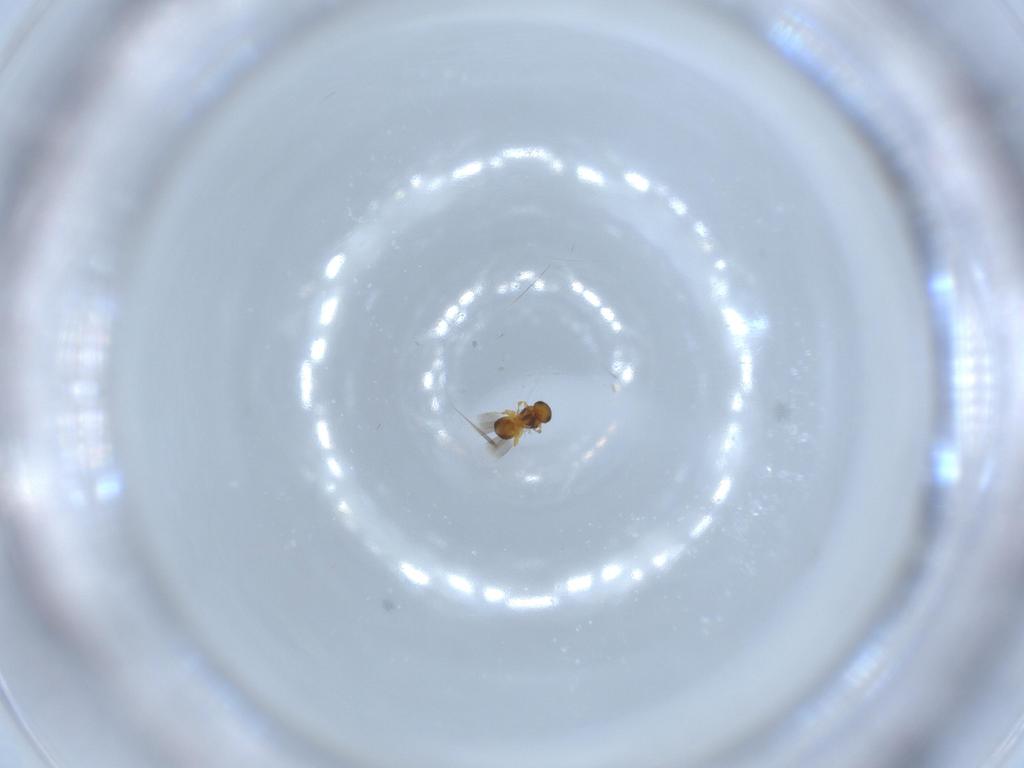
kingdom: Animalia
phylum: Arthropoda
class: Insecta
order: Hymenoptera
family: Platygastridae
